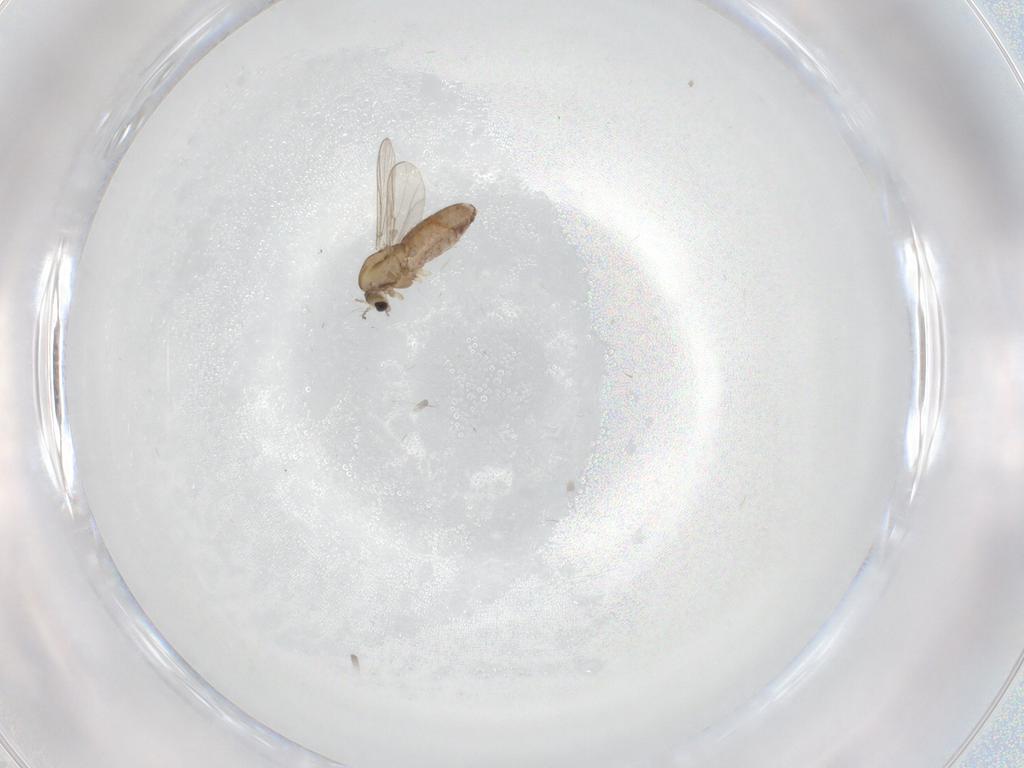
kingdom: Animalia
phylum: Arthropoda
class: Insecta
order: Diptera
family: Chironomidae
